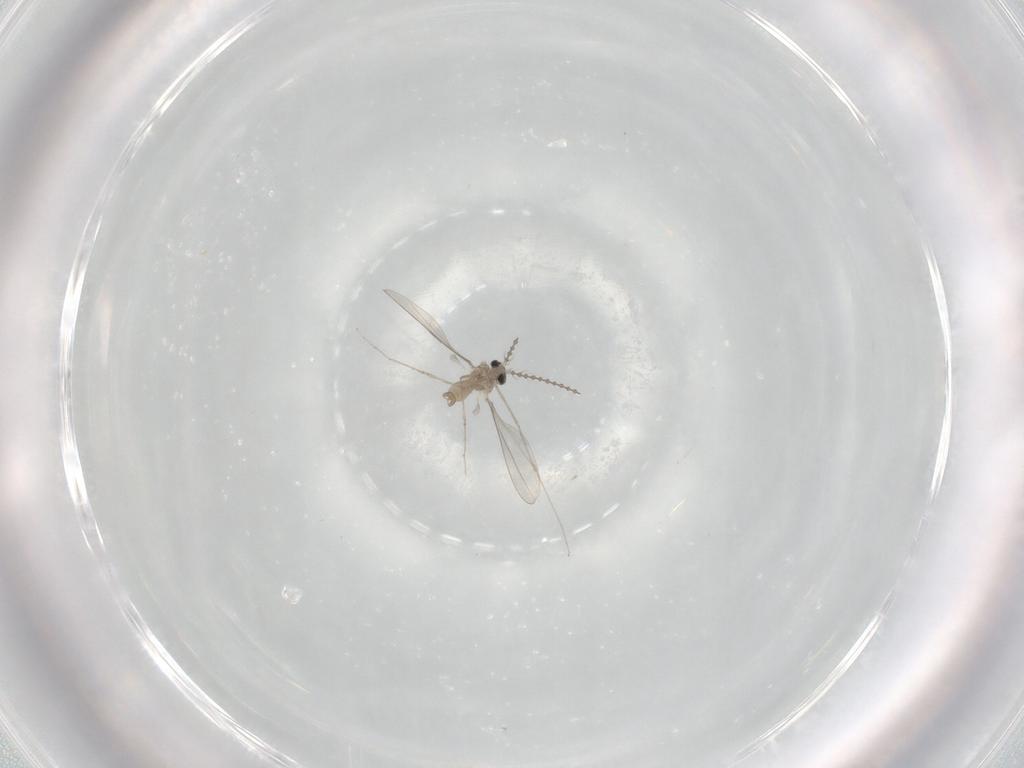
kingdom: Animalia
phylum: Arthropoda
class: Insecta
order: Diptera
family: Cecidomyiidae
